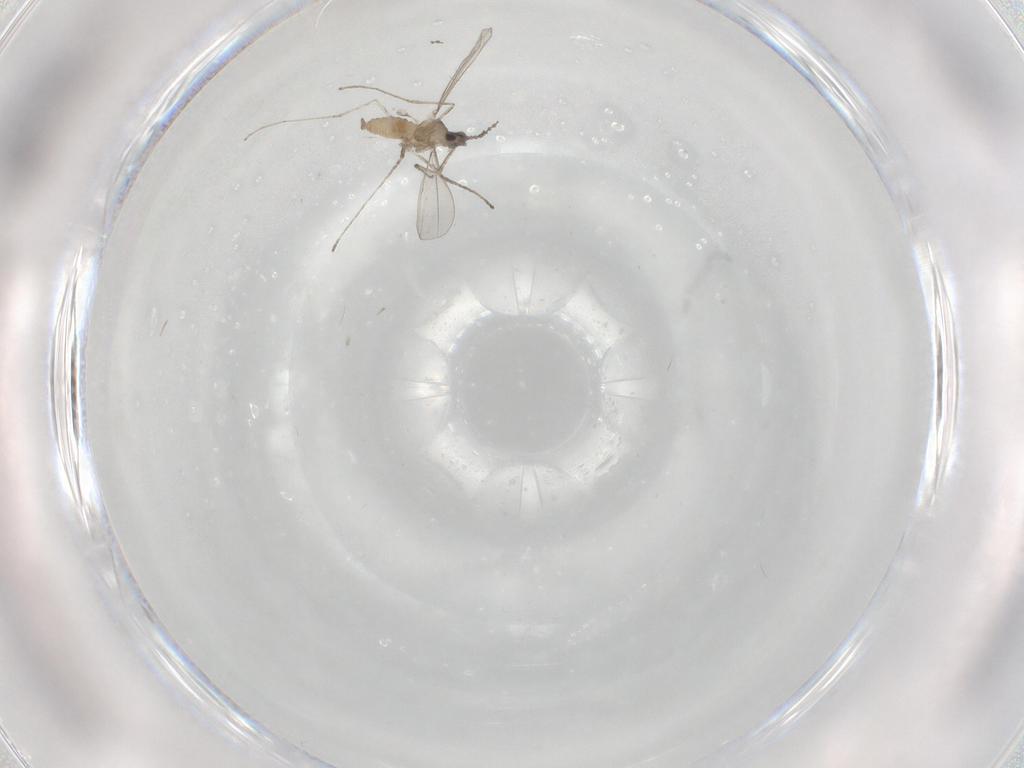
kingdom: Animalia
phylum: Arthropoda
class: Insecta
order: Diptera
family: Cecidomyiidae
